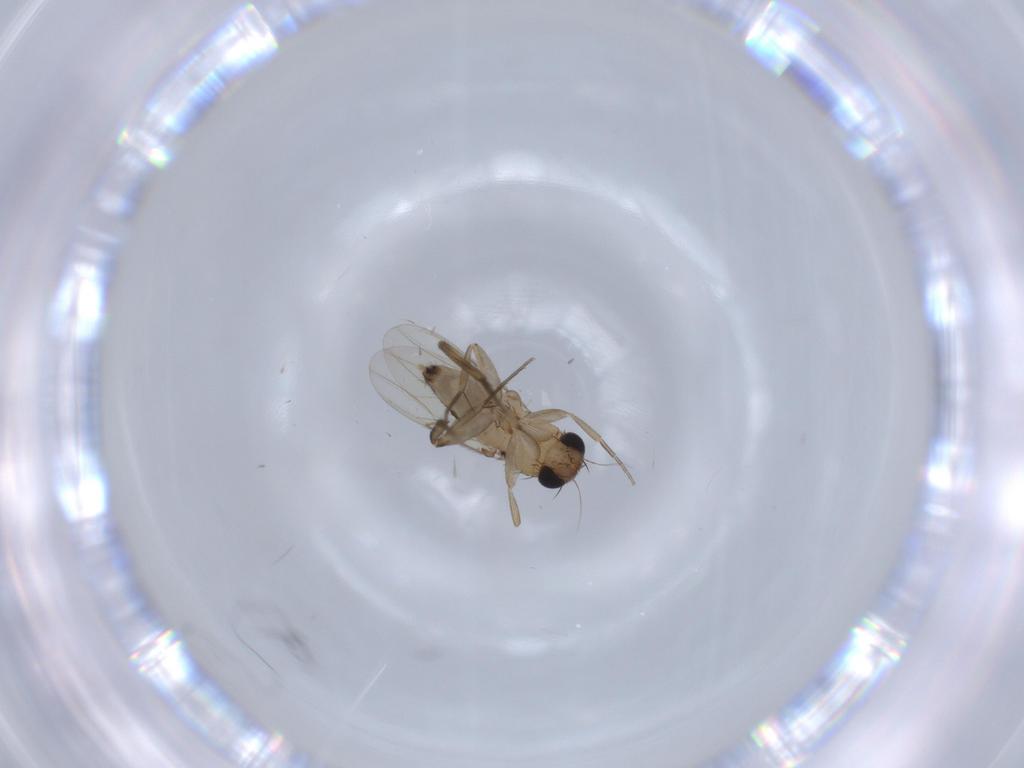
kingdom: Animalia
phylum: Arthropoda
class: Insecta
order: Diptera
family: Phoridae
